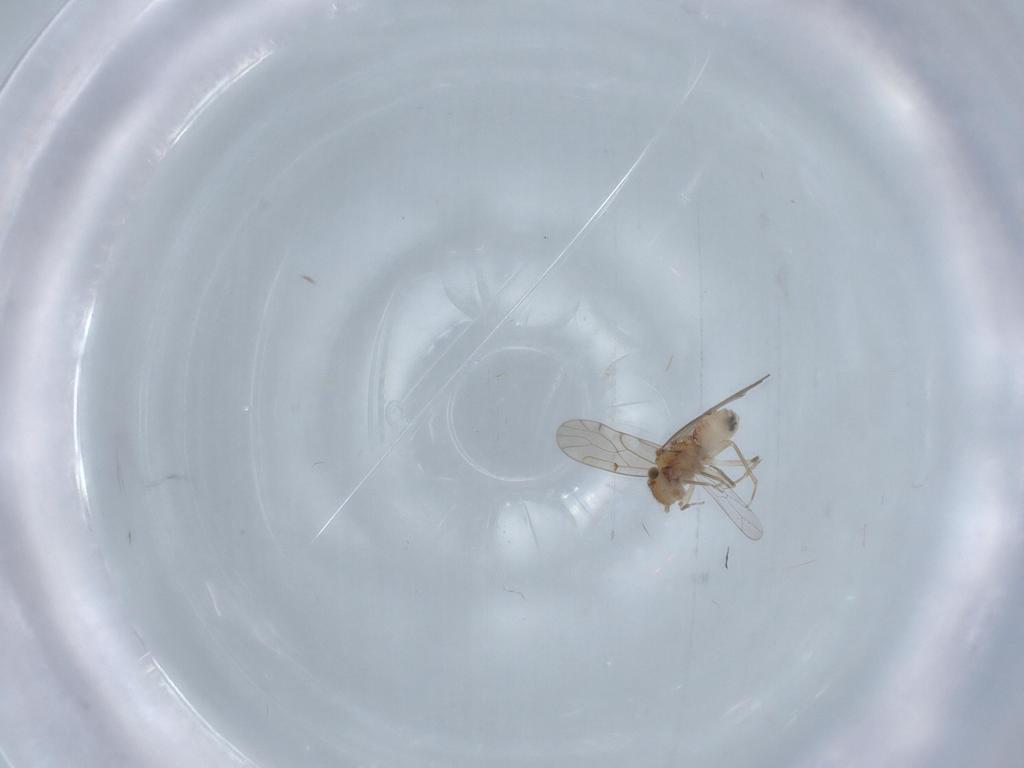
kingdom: Animalia
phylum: Arthropoda
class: Insecta
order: Psocodea
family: Ectopsocidae
